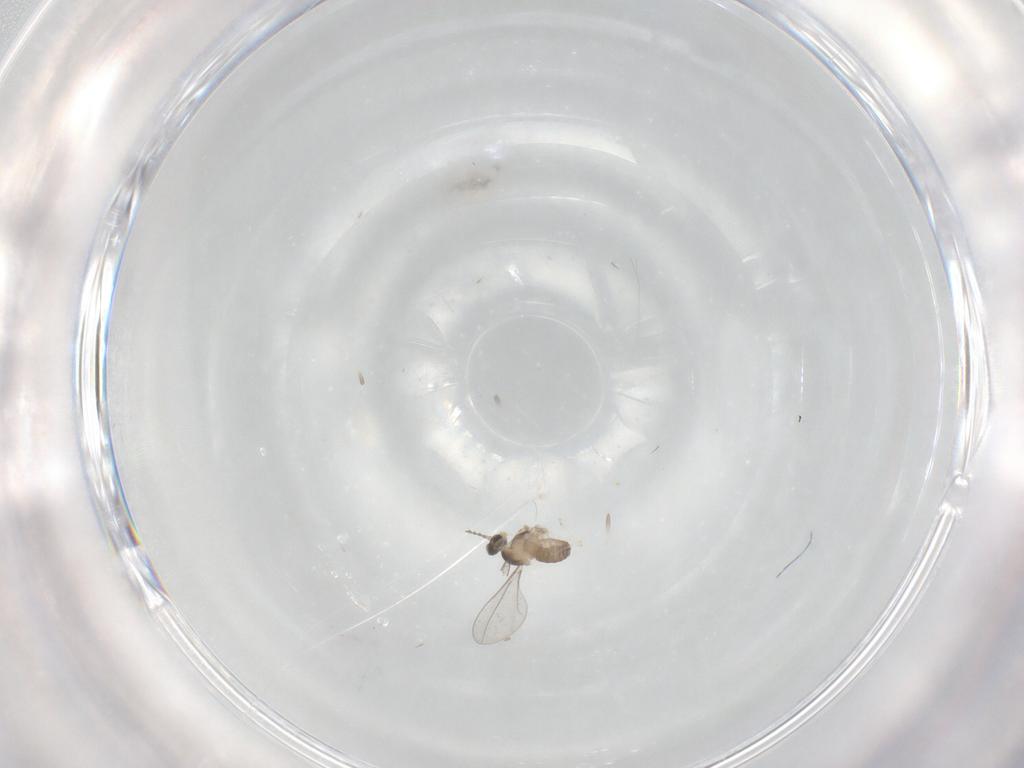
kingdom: Animalia
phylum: Arthropoda
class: Insecta
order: Diptera
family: Cecidomyiidae
